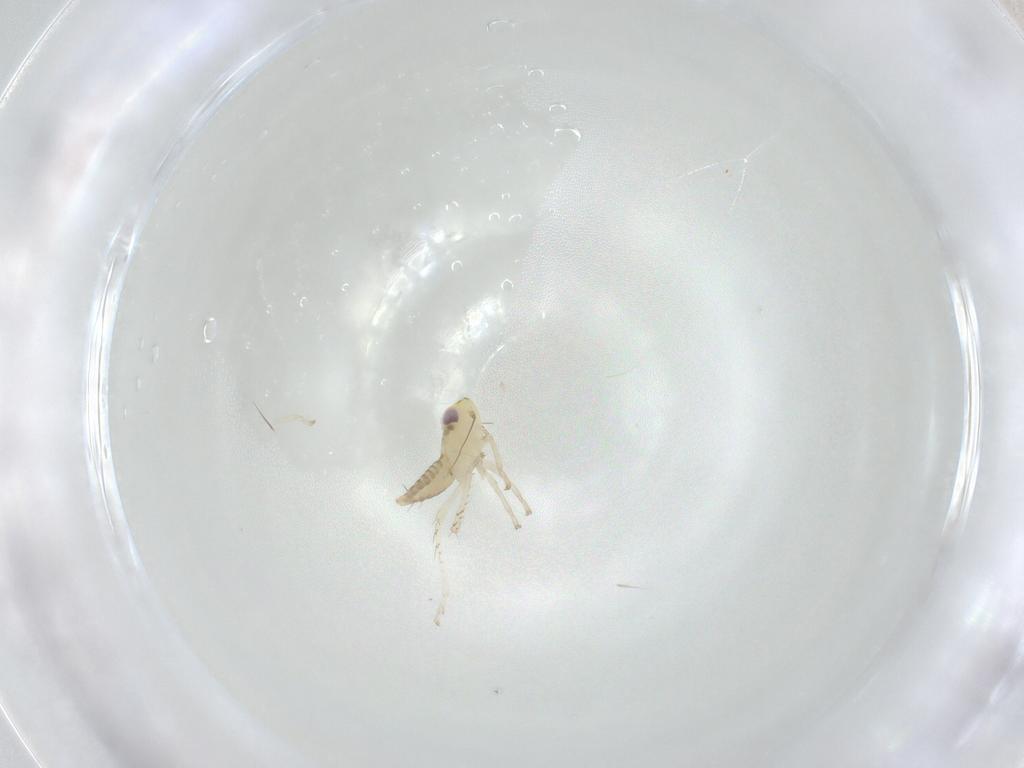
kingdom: Animalia
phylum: Arthropoda
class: Insecta
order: Hemiptera
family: Cicadellidae
